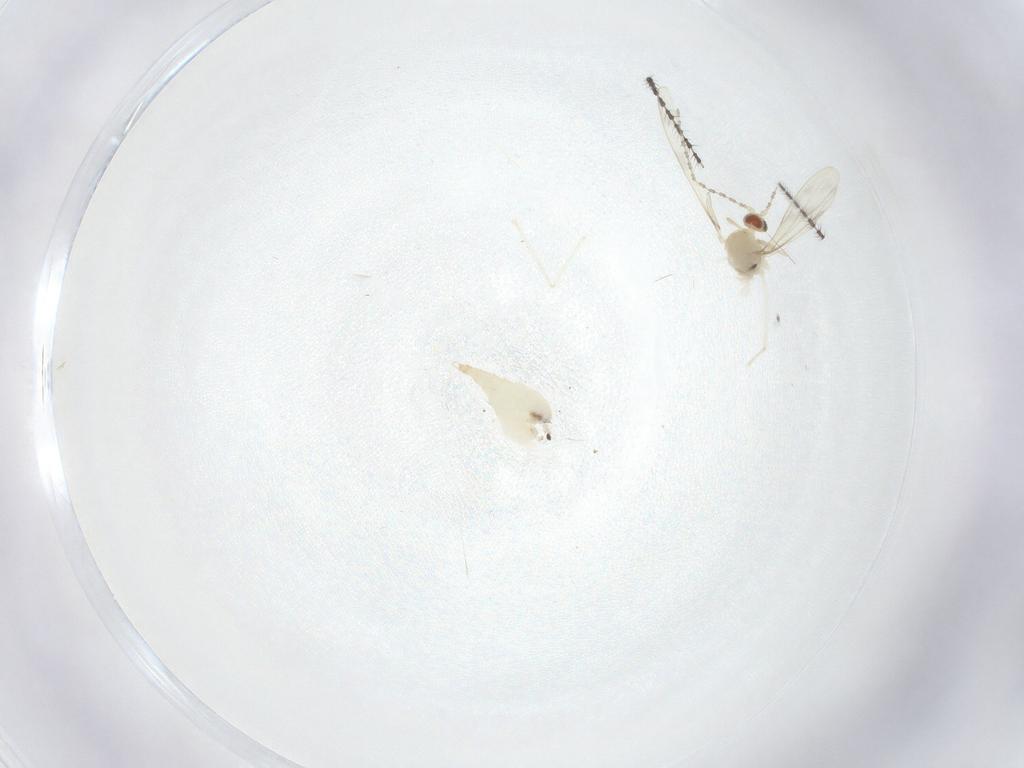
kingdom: Animalia
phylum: Arthropoda
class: Insecta
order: Diptera
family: Cecidomyiidae
